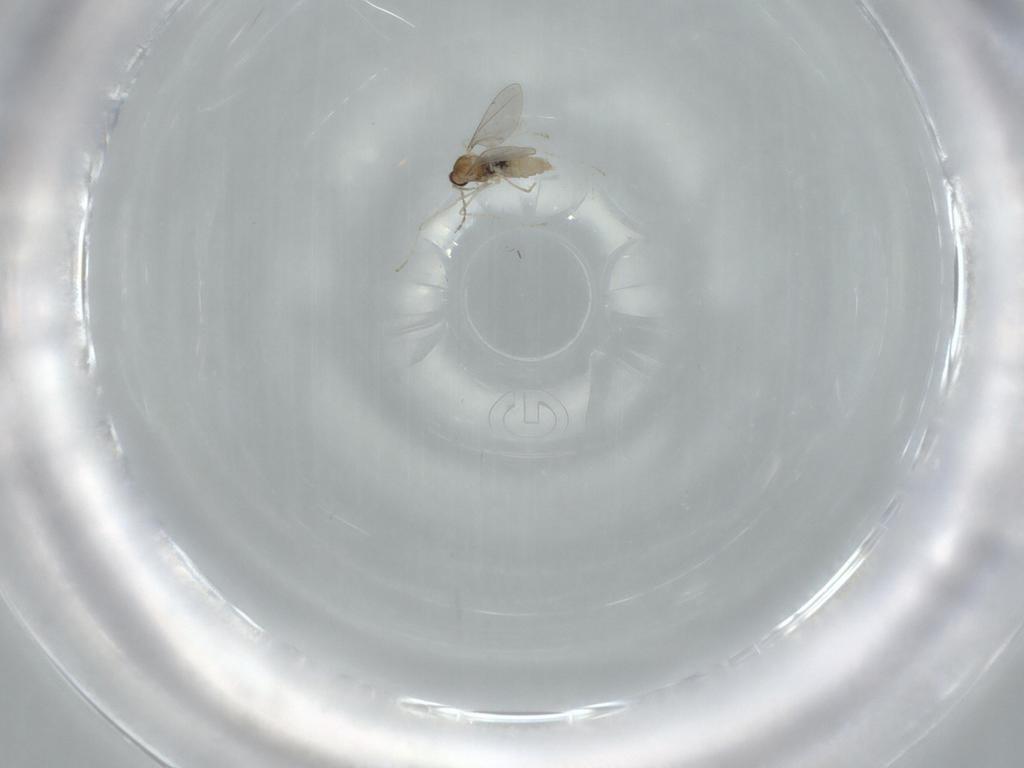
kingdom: Animalia
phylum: Arthropoda
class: Insecta
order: Diptera
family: Cecidomyiidae
